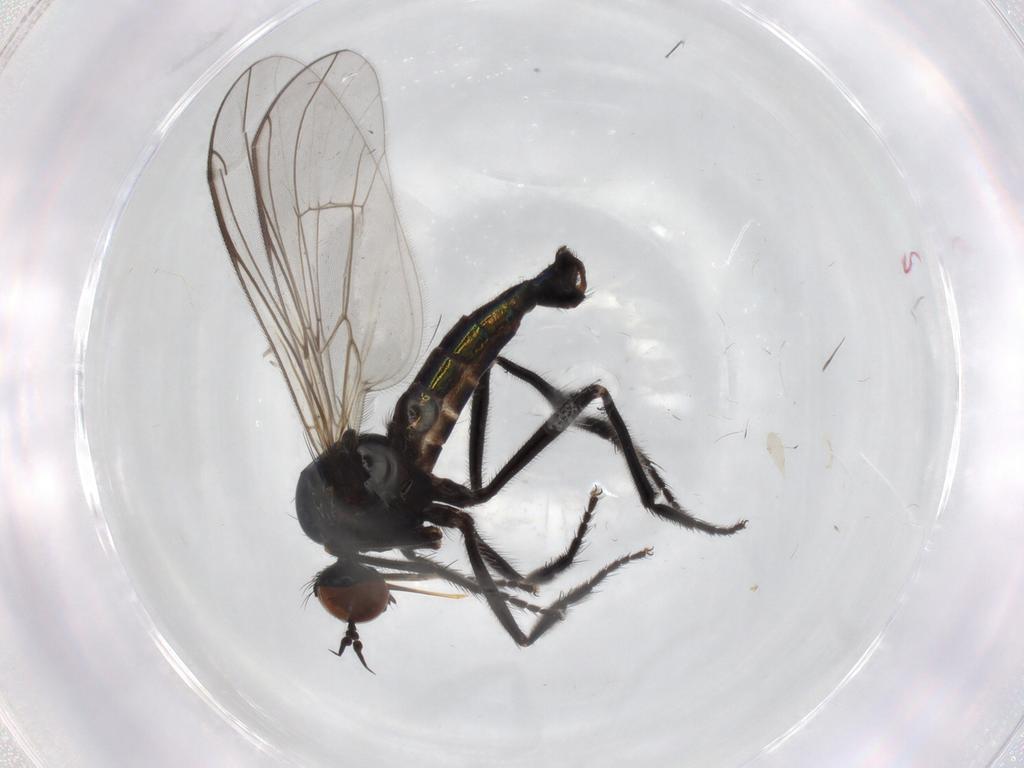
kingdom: Animalia
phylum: Arthropoda
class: Insecta
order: Diptera
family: Empididae
